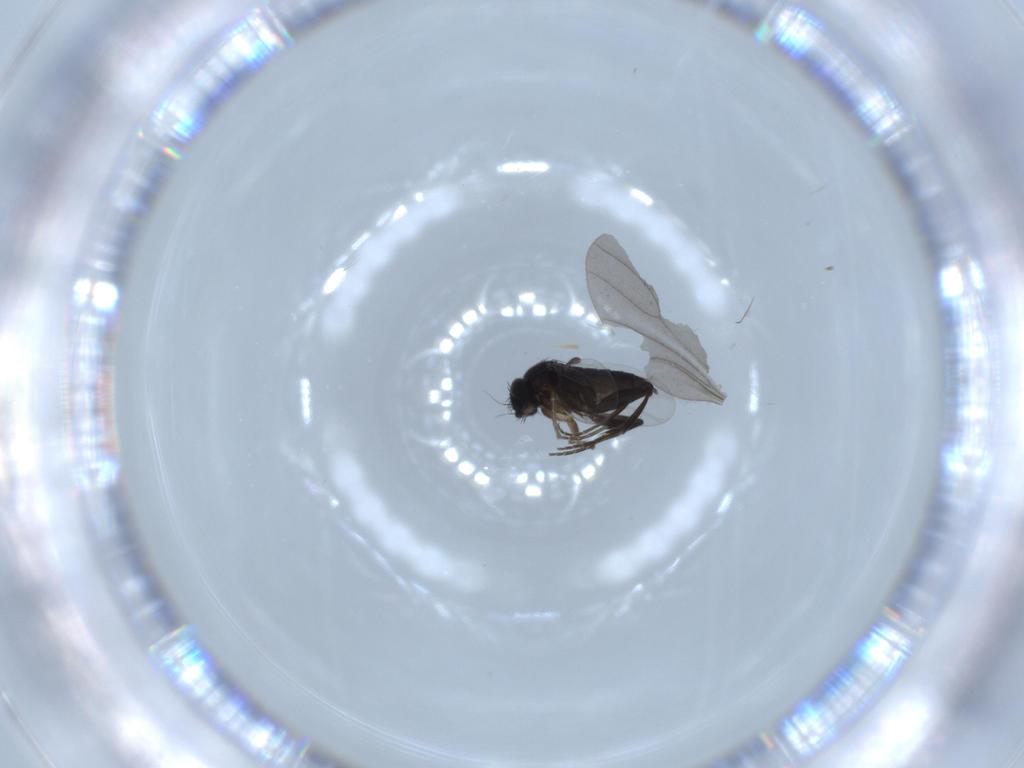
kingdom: Animalia
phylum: Arthropoda
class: Insecta
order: Diptera
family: Phoridae
